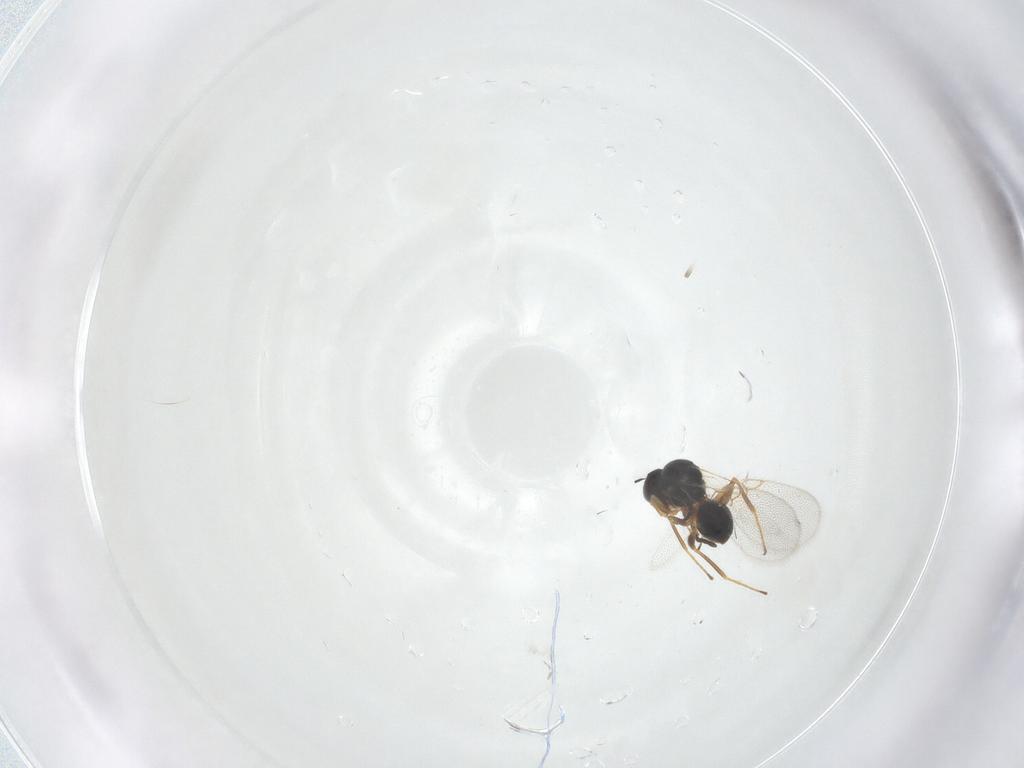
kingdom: Animalia
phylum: Arthropoda
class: Insecta
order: Hymenoptera
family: Figitidae
